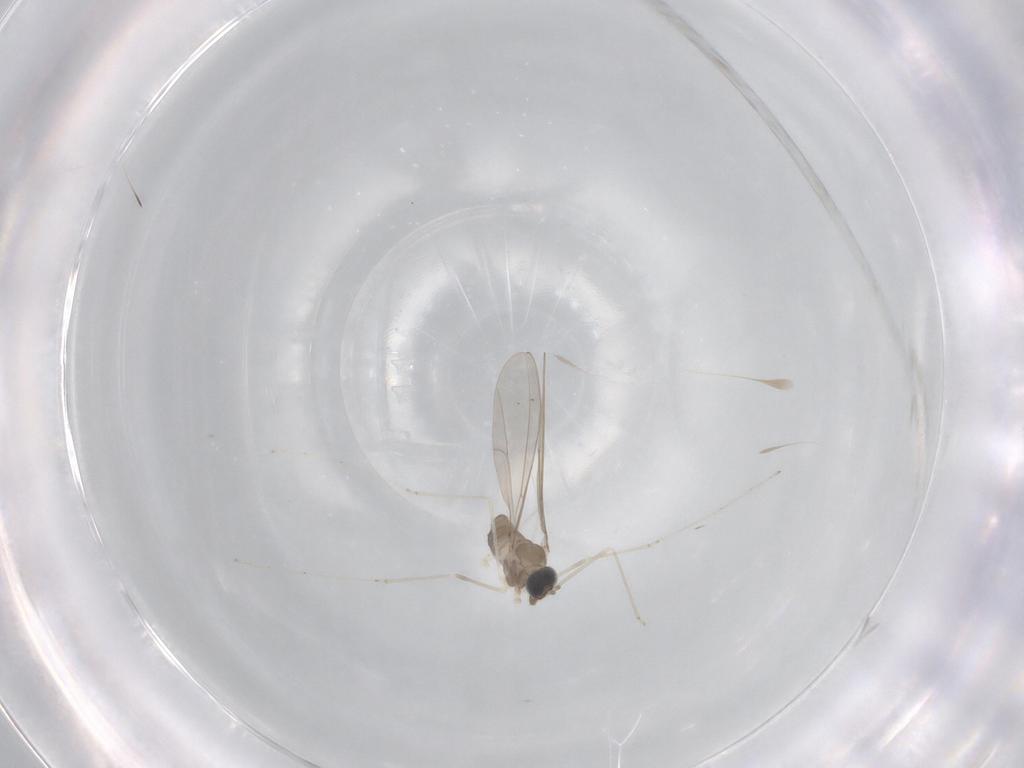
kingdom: Animalia
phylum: Arthropoda
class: Insecta
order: Diptera
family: Cecidomyiidae
